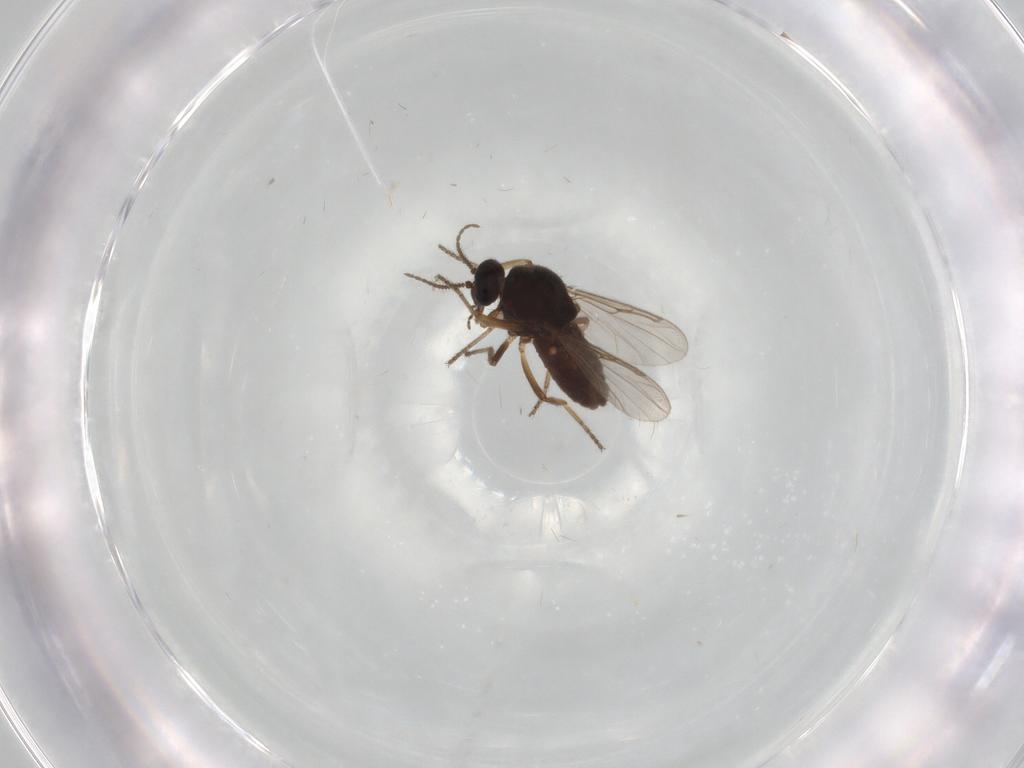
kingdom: Animalia
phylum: Arthropoda
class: Insecta
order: Diptera
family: Ceratopogonidae
